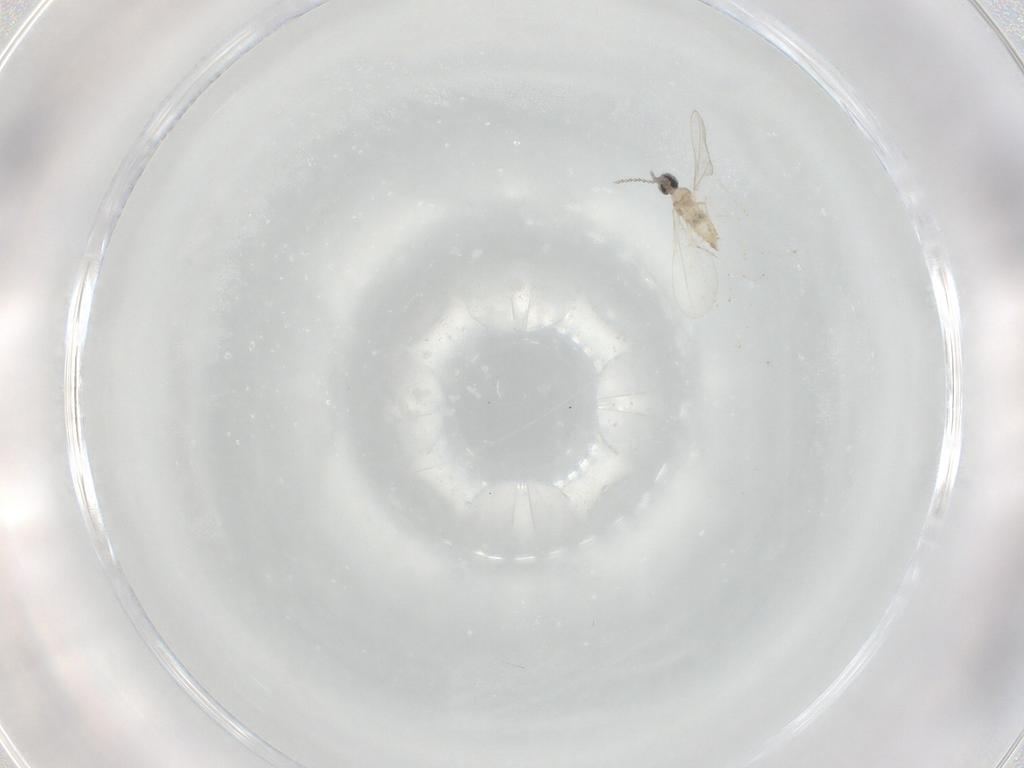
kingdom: Animalia
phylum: Arthropoda
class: Insecta
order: Diptera
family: Cecidomyiidae
